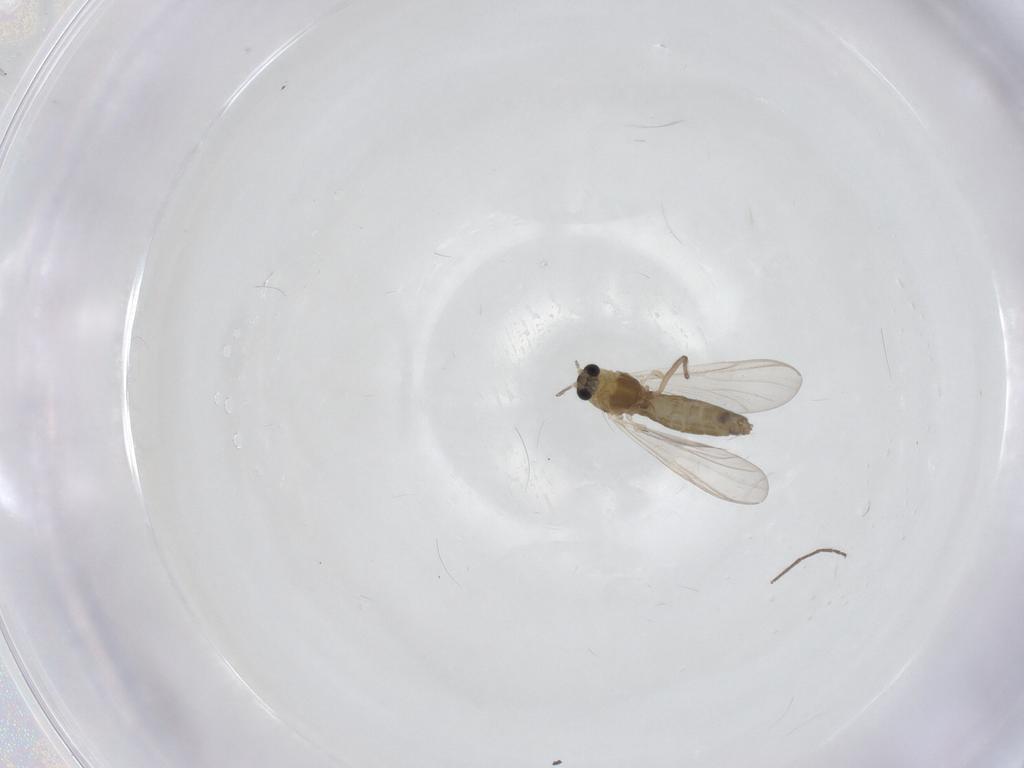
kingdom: Animalia
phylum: Arthropoda
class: Insecta
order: Diptera
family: Chironomidae
